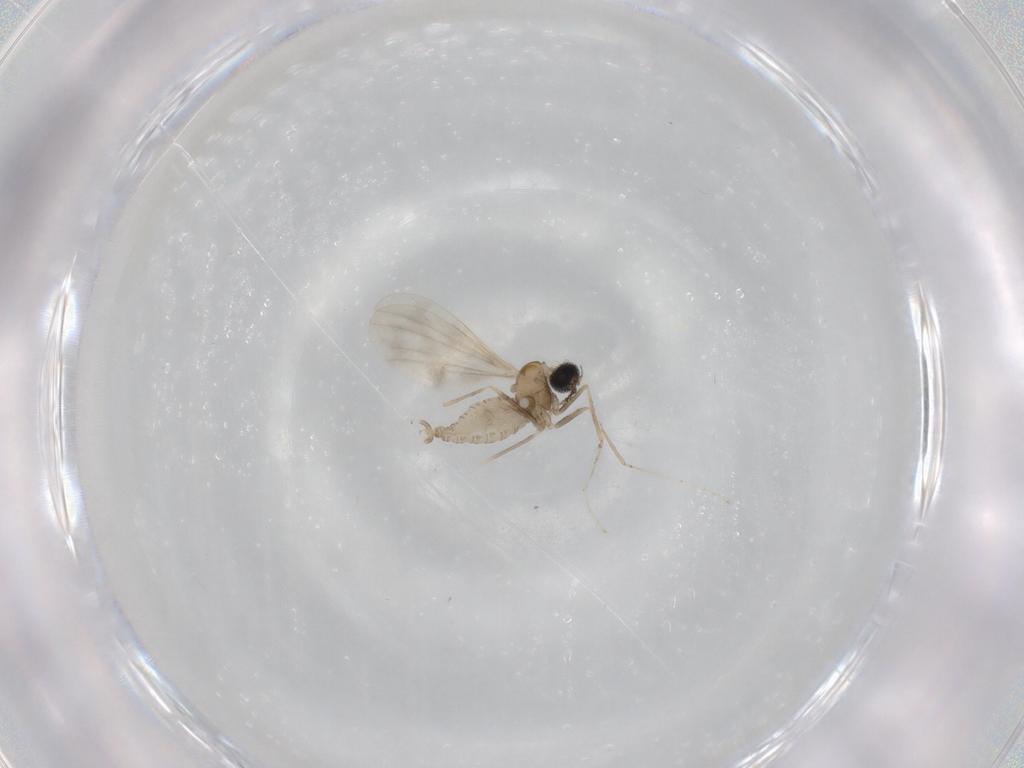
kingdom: Animalia
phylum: Arthropoda
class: Insecta
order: Diptera
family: Cecidomyiidae
